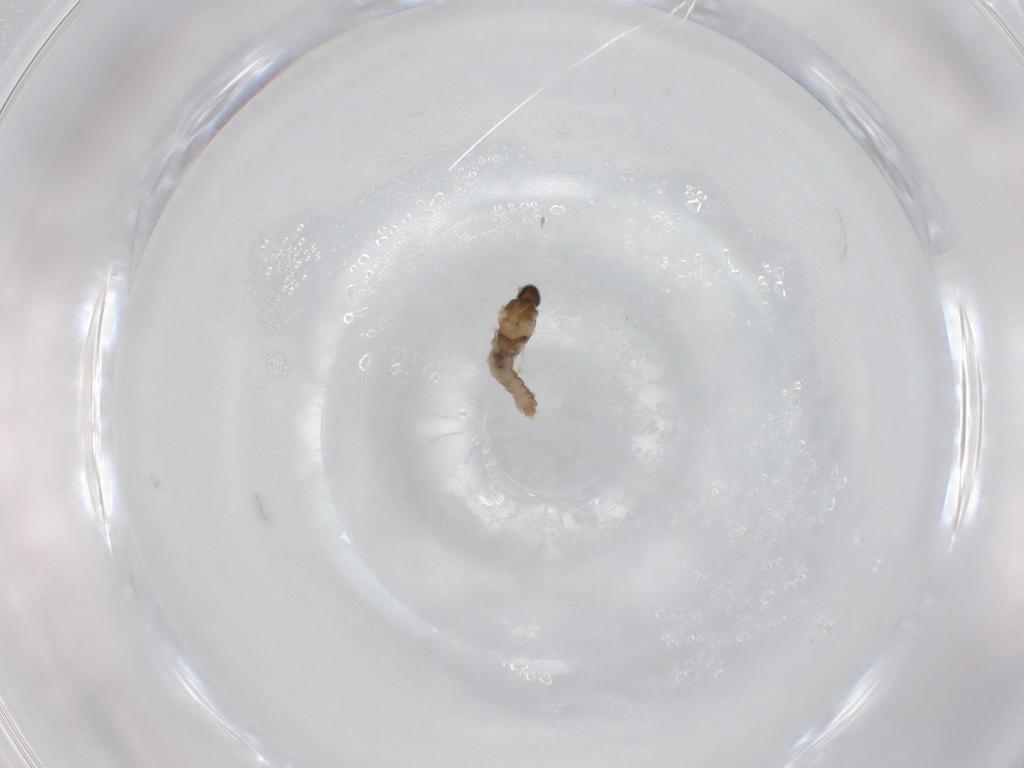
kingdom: Animalia
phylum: Arthropoda
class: Insecta
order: Diptera
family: Cecidomyiidae
